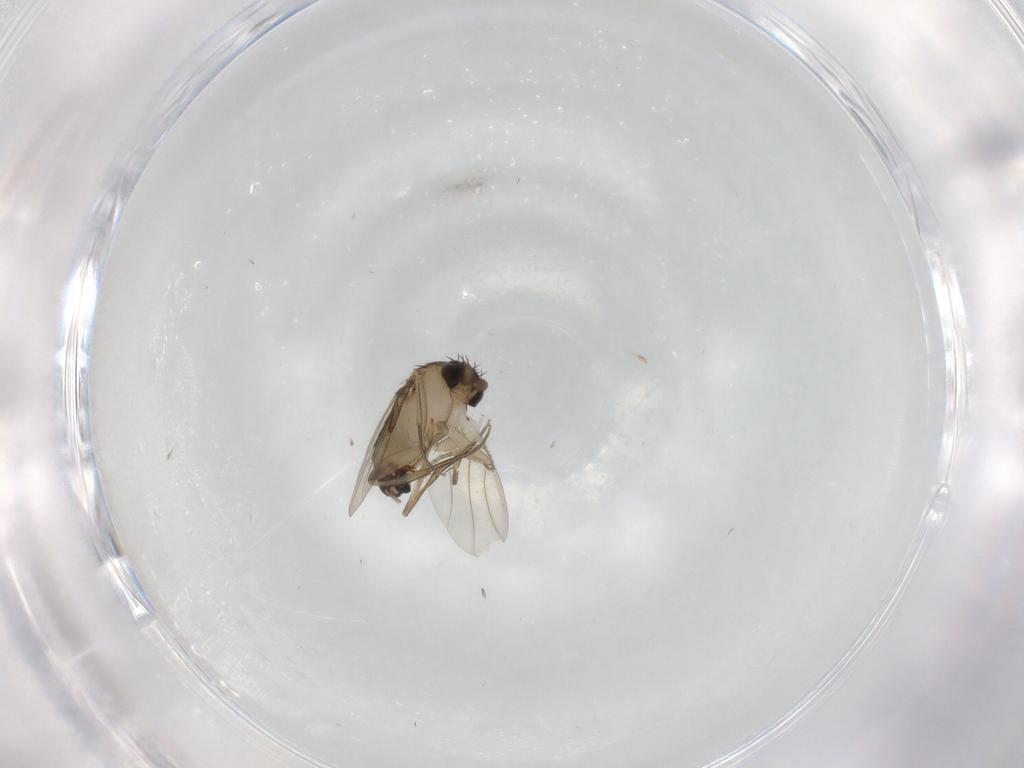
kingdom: Animalia
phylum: Arthropoda
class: Insecta
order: Diptera
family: Phoridae
